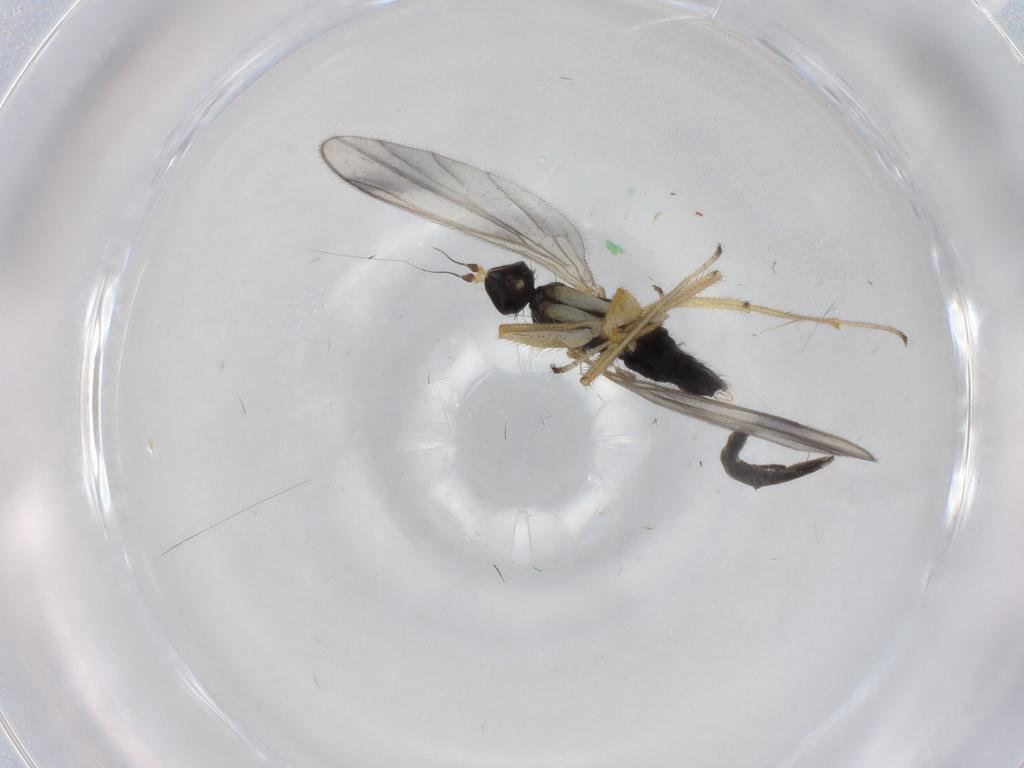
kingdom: Animalia
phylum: Arthropoda
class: Insecta
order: Diptera
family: Empididae
